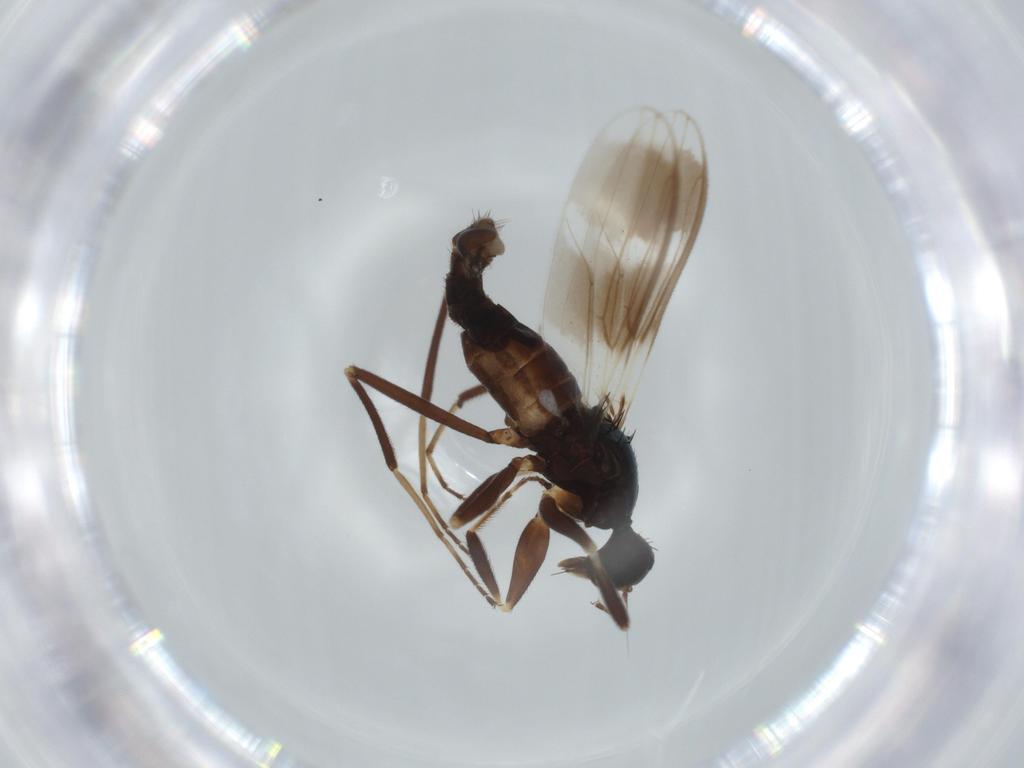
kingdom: Animalia
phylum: Arthropoda
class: Insecta
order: Diptera
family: Hybotidae
